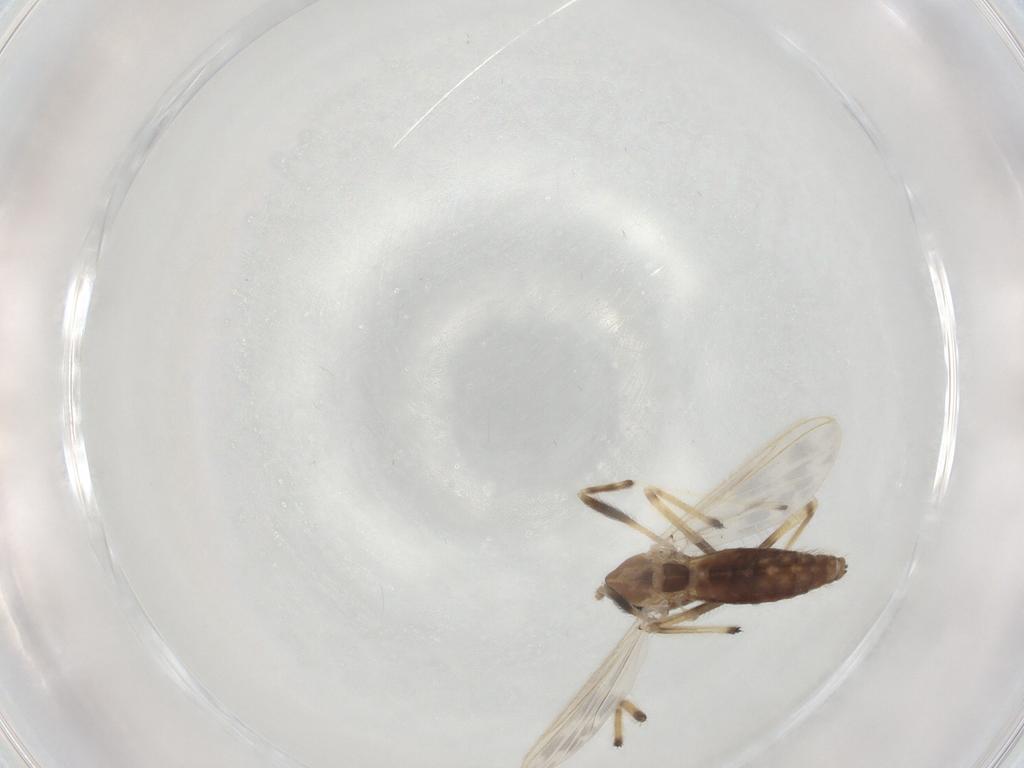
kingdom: Animalia
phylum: Arthropoda
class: Insecta
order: Diptera
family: Chironomidae
